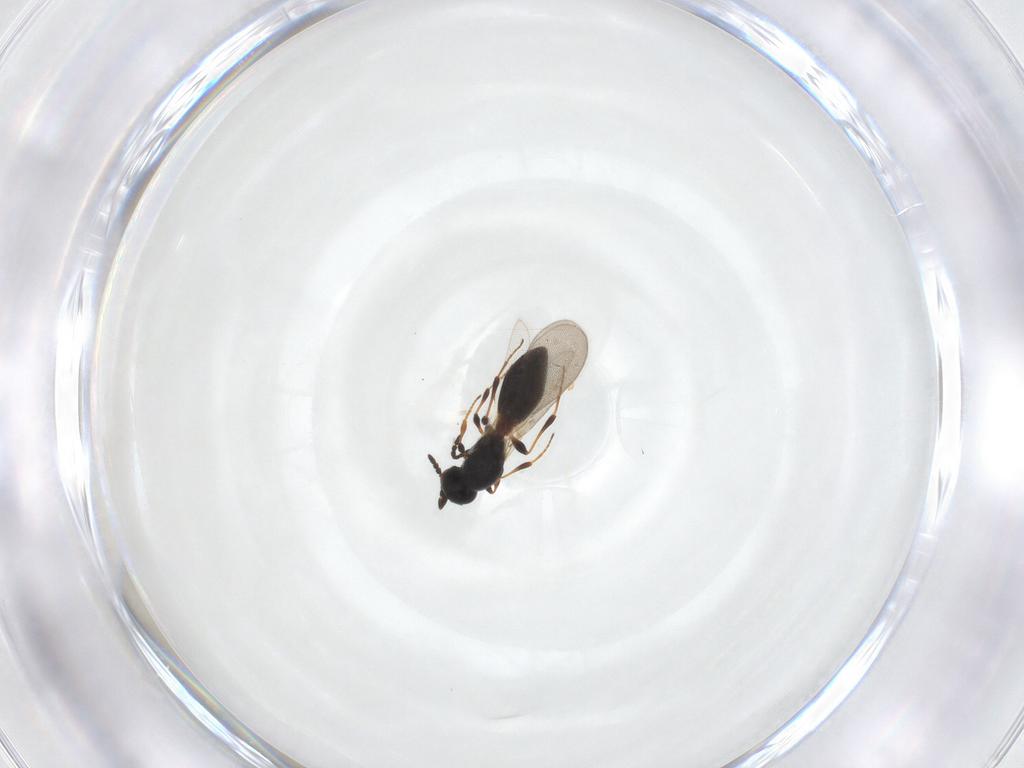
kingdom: Animalia
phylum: Arthropoda
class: Insecta
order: Hymenoptera
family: Platygastridae
